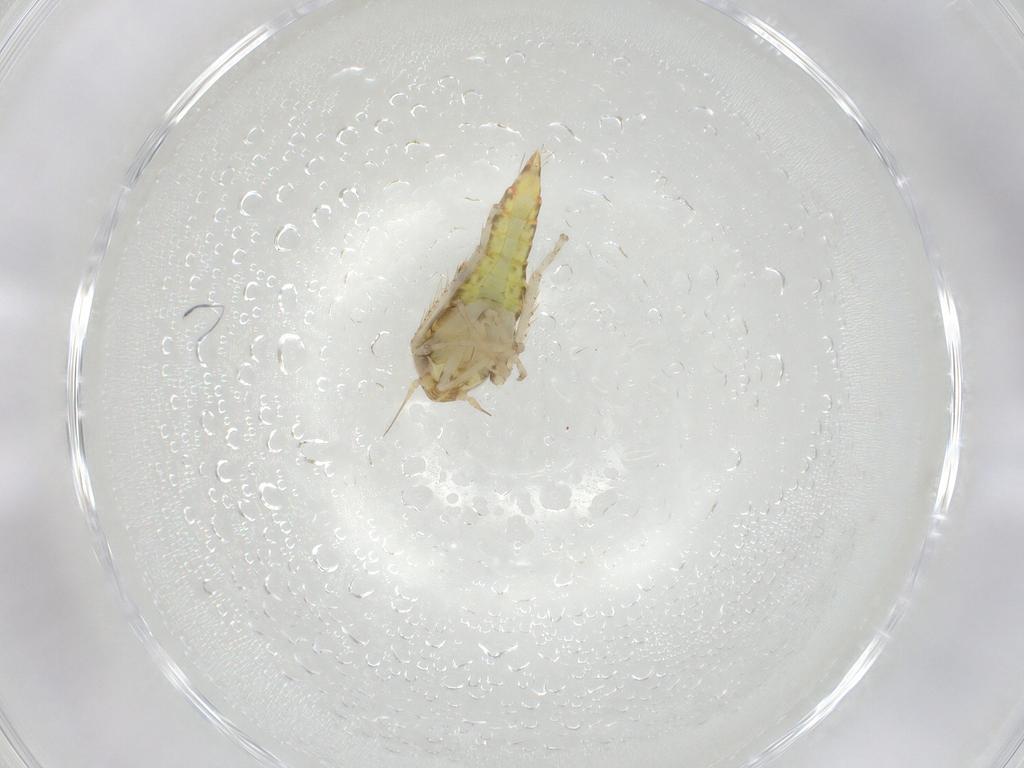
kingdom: Animalia
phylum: Arthropoda
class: Insecta
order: Hemiptera
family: Cicadellidae
